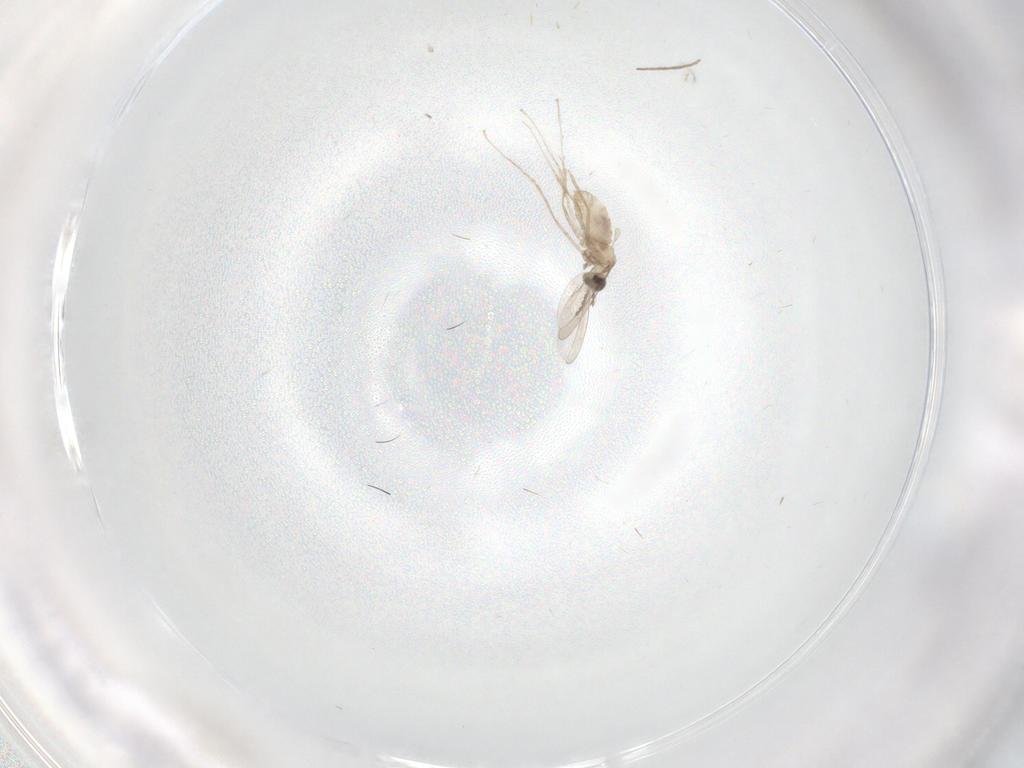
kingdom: Animalia
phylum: Arthropoda
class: Insecta
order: Diptera
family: Cecidomyiidae
